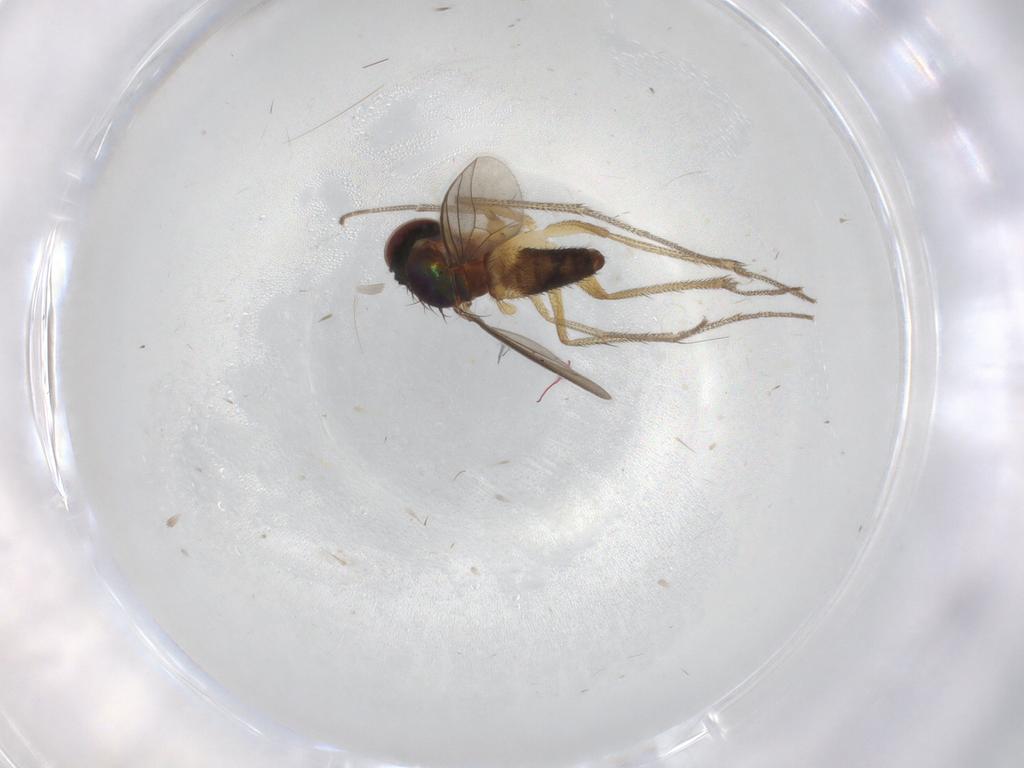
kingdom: Animalia
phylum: Arthropoda
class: Insecta
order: Diptera
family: Dolichopodidae
